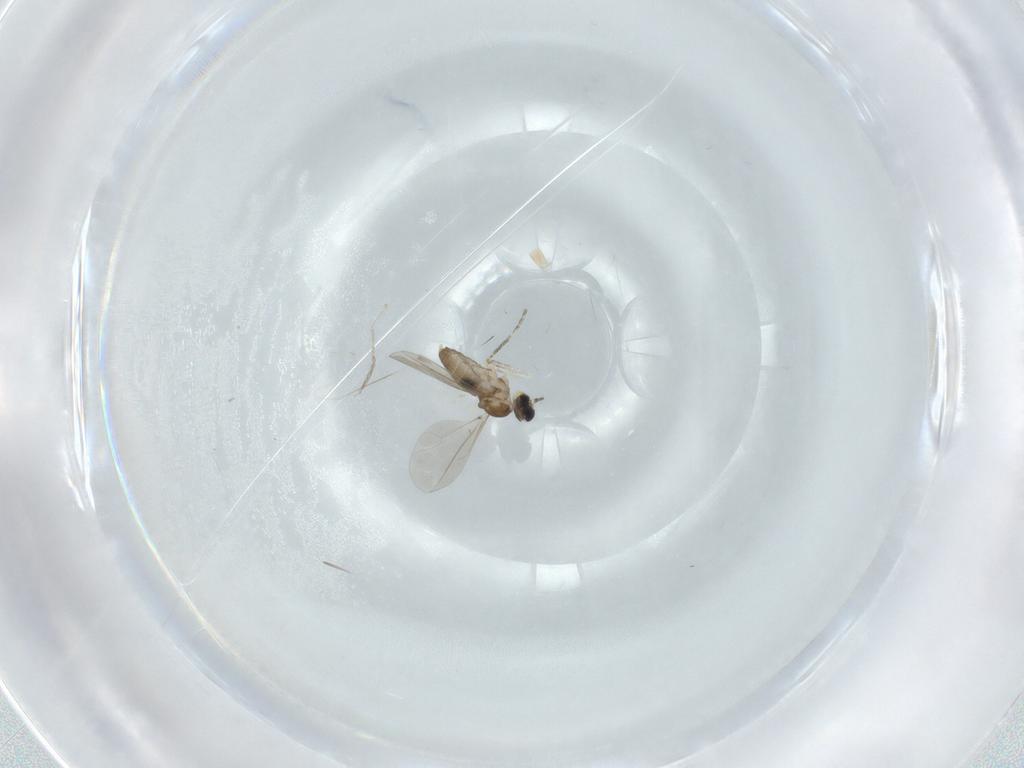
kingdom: Animalia
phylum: Arthropoda
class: Insecta
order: Diptera
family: Cecidomyiidae
